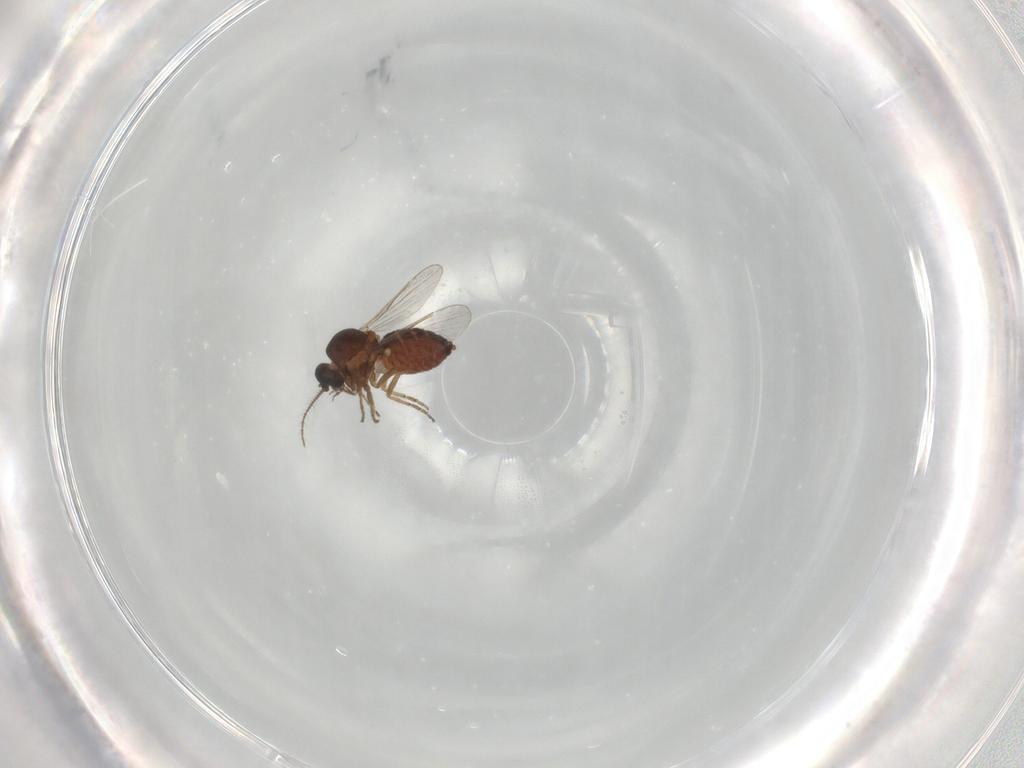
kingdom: Animalia
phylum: Arthropoda
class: Insecta
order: Diptera
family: Ceratopogonidae
